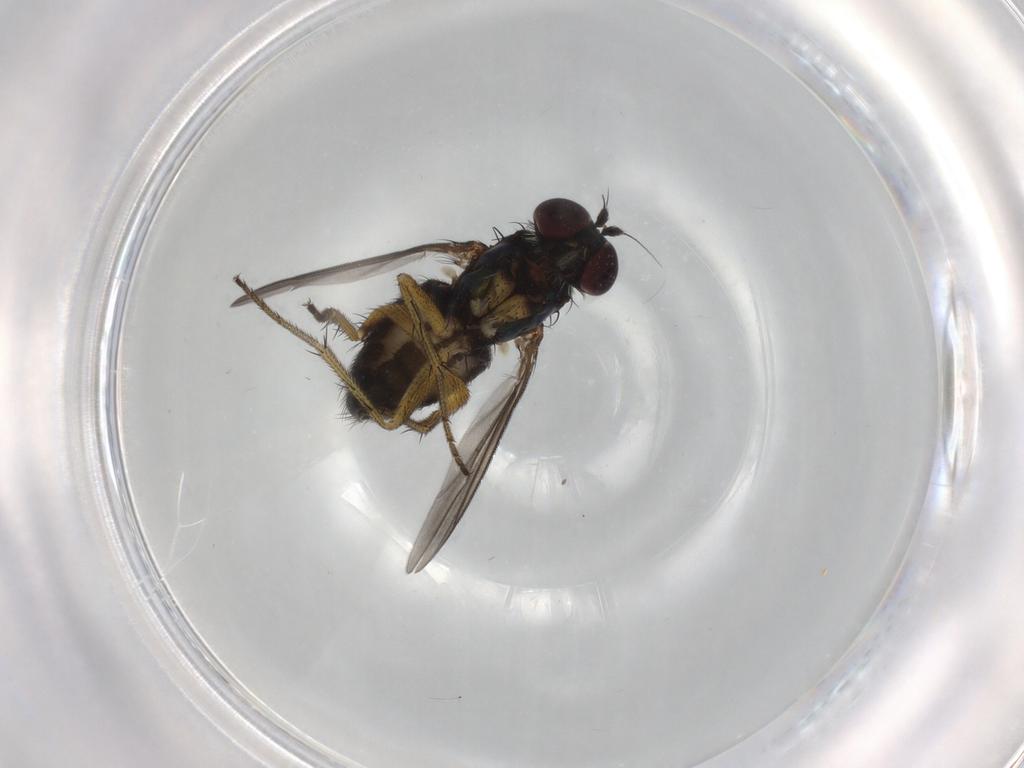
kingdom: Animalia
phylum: Arthropoda
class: Insecta
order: Diptera
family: Dolichopodidae
